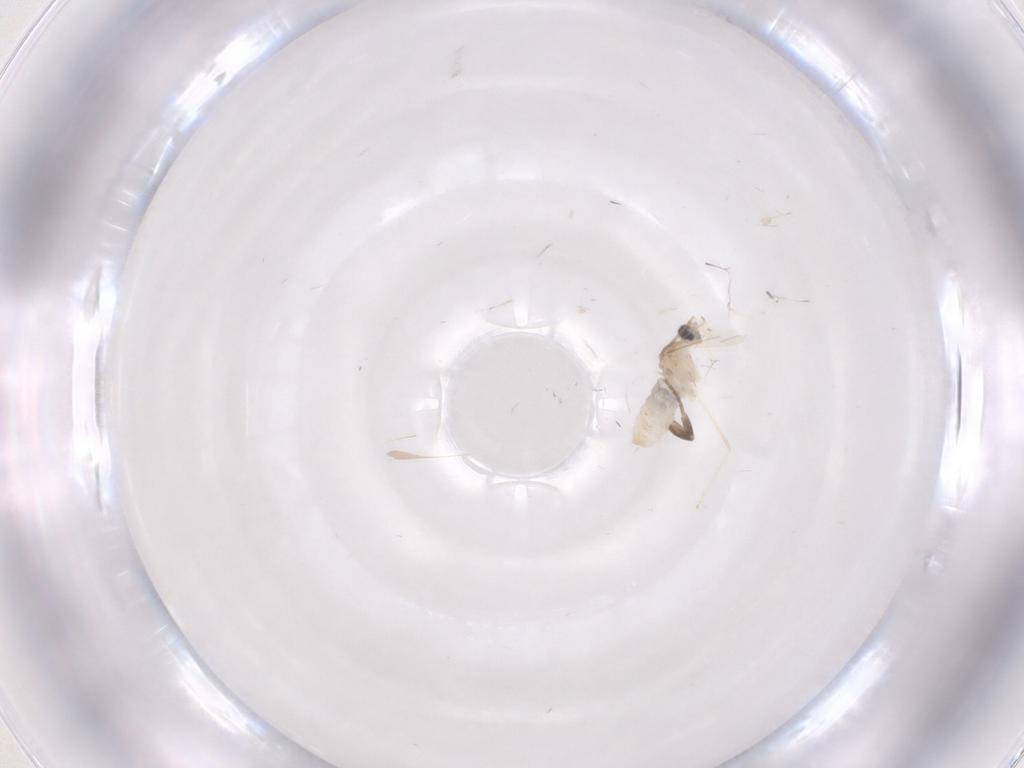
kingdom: Animalia
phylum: Arthropoda
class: Insecta
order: Diptera
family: Cecidomyiidae
